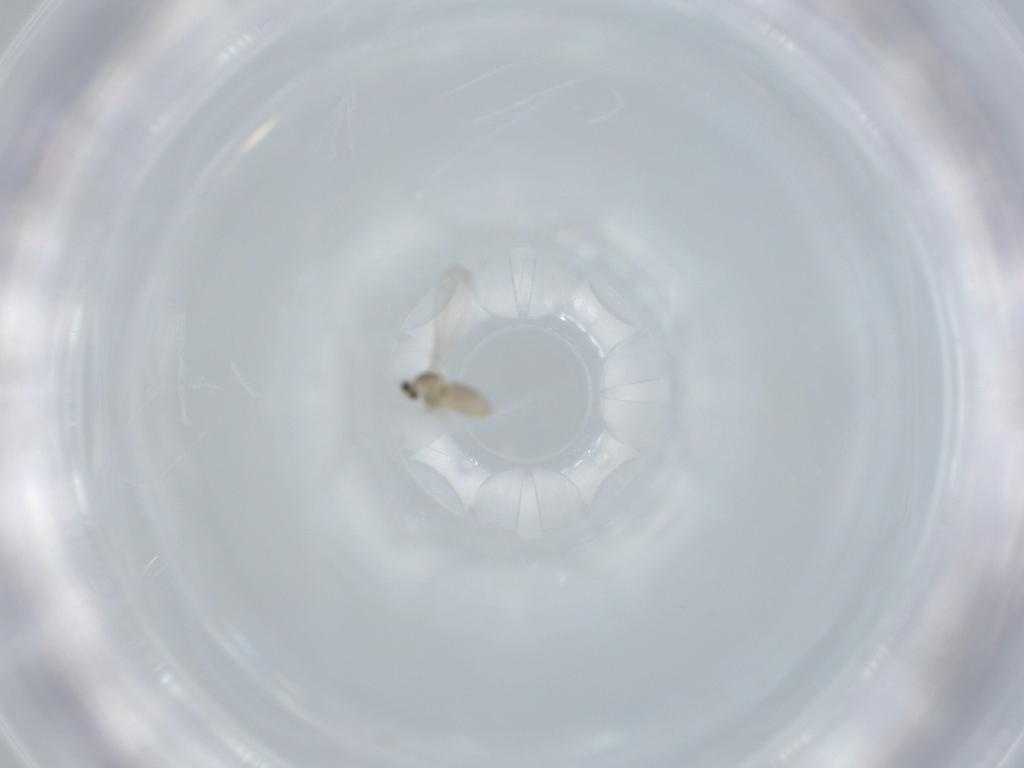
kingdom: Animalia
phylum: Arthropoda
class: Insecta
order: Diptera
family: Cecidomyiidae
